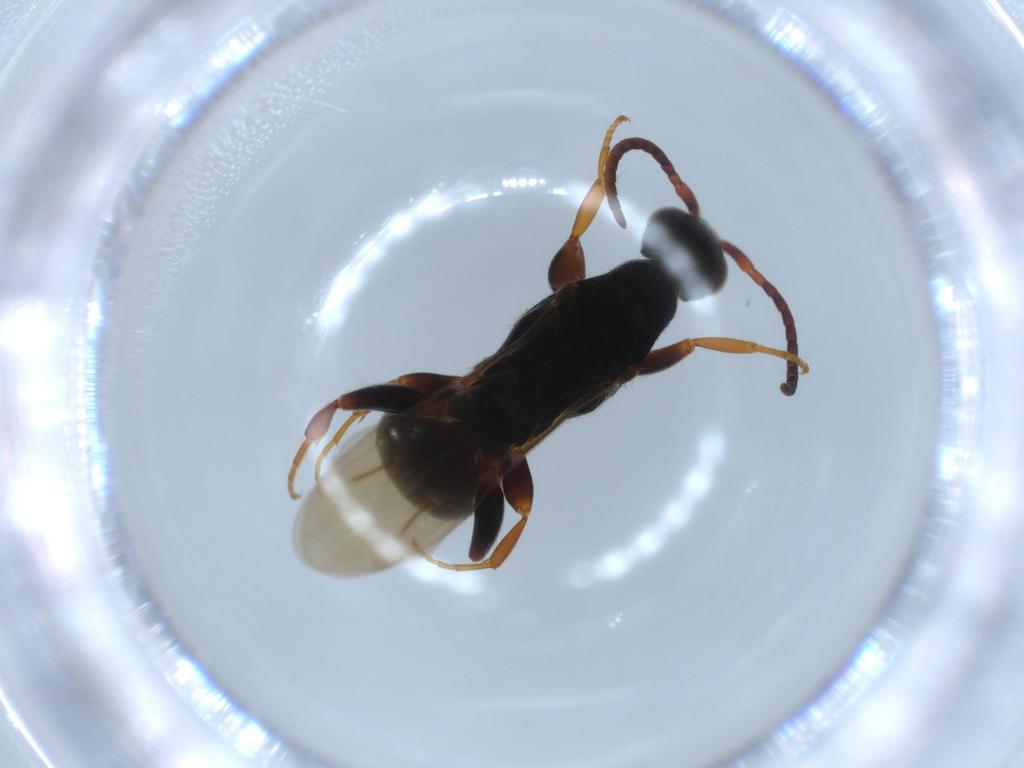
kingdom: Animalia
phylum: Arthropoda
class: Insecta
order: Hymenoptera
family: Bethylidae
